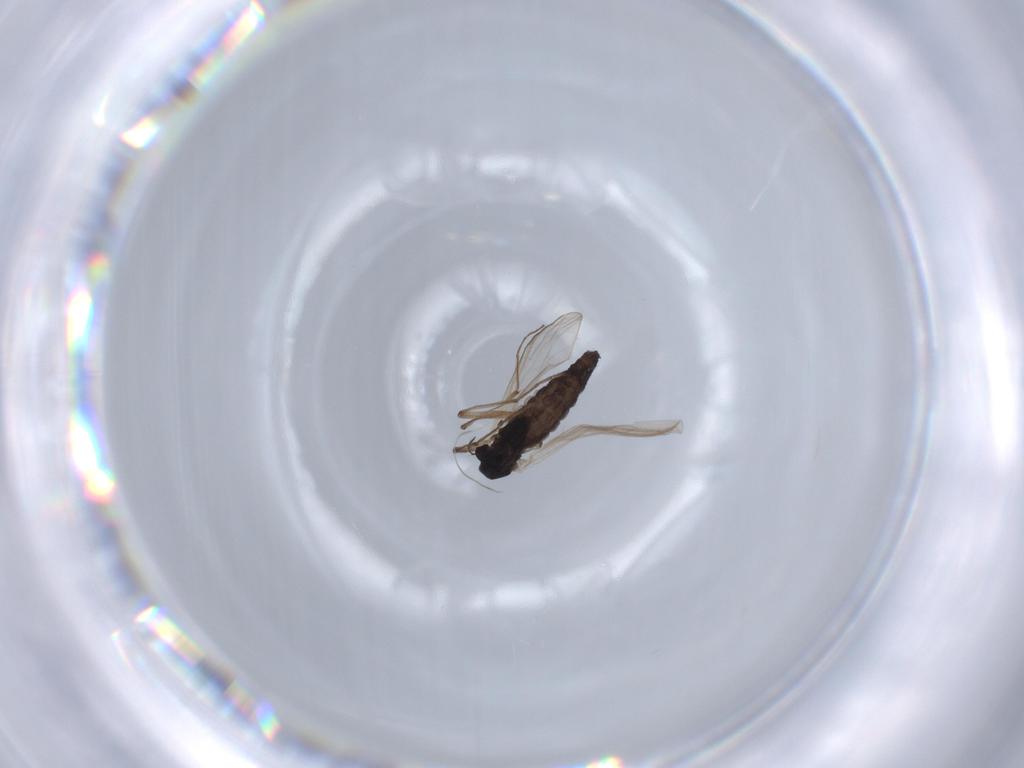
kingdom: Animalia
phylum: Arthropoda
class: Insecta
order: Diptera
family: Chironomidae
